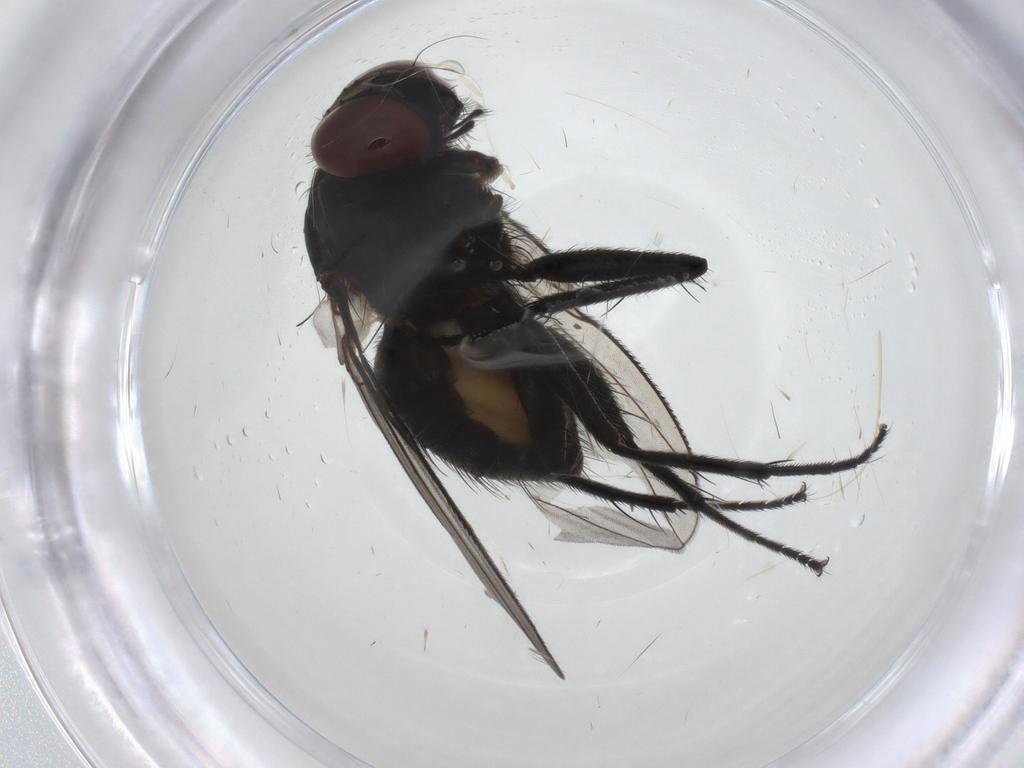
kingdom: Animalia
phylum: Arthropoda
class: Insecta
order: Diptera
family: Muscidae
